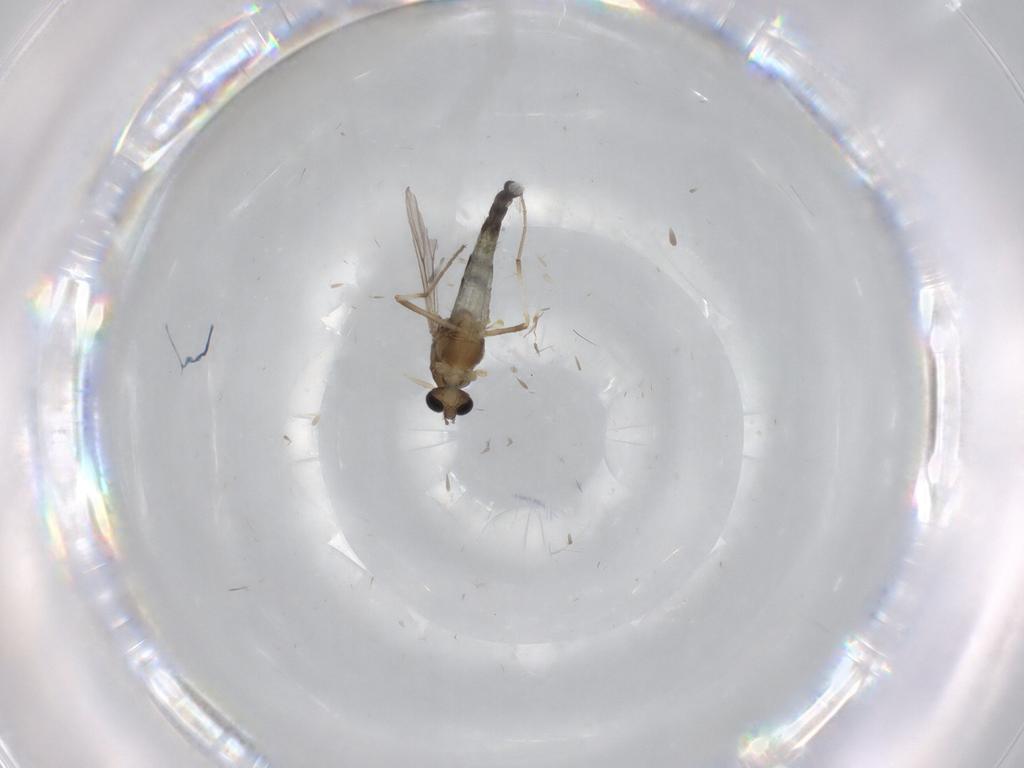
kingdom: Animalia
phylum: Arthropoda
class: Insecta
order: Diptera
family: Chironomidae
